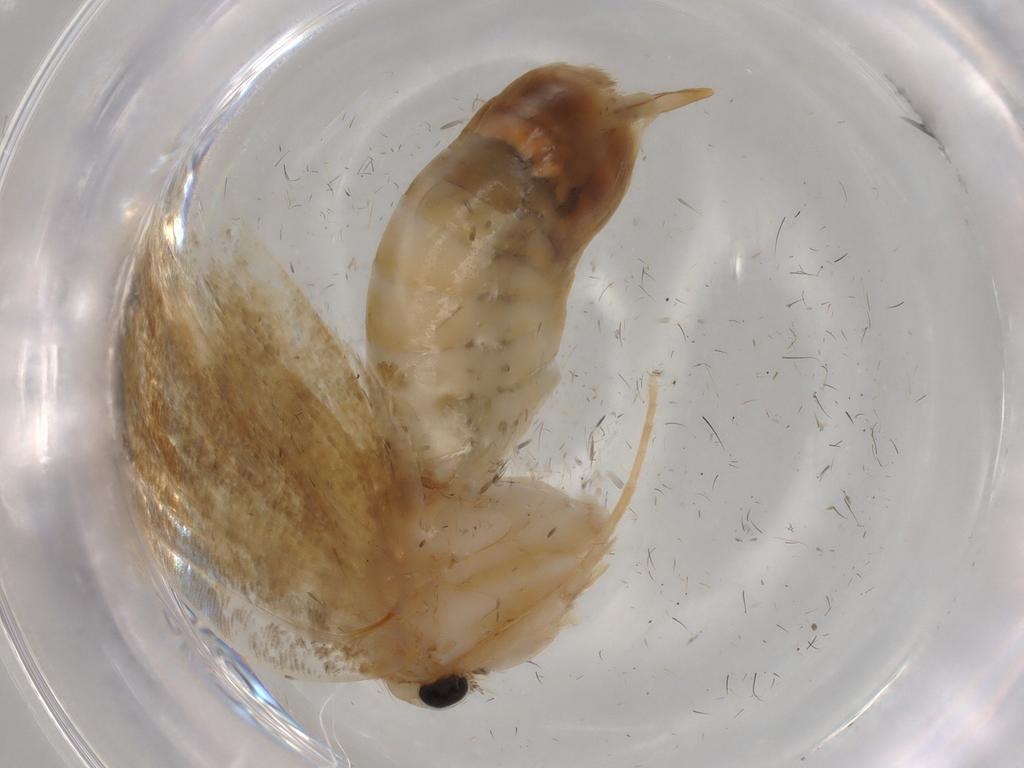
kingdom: Animalia
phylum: Arthropoda
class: Insecta
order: Lepidoptera
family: Psychidae
